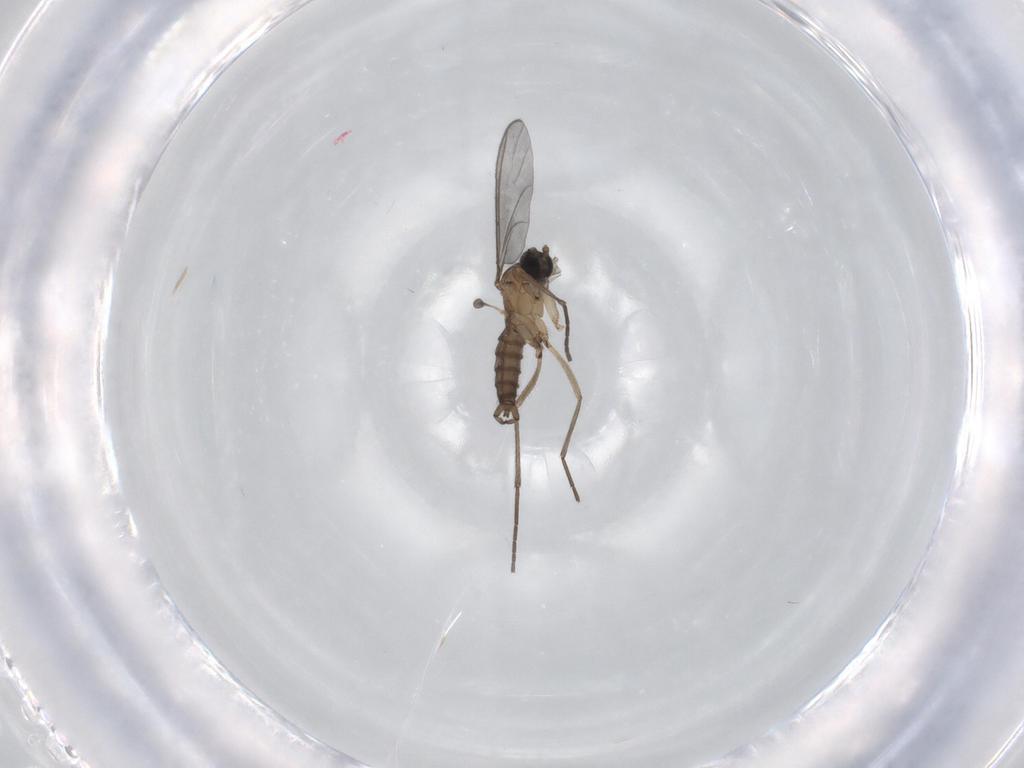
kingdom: Animalia
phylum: Arthropoda
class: Insecta
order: Diptera
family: Sciaridae
